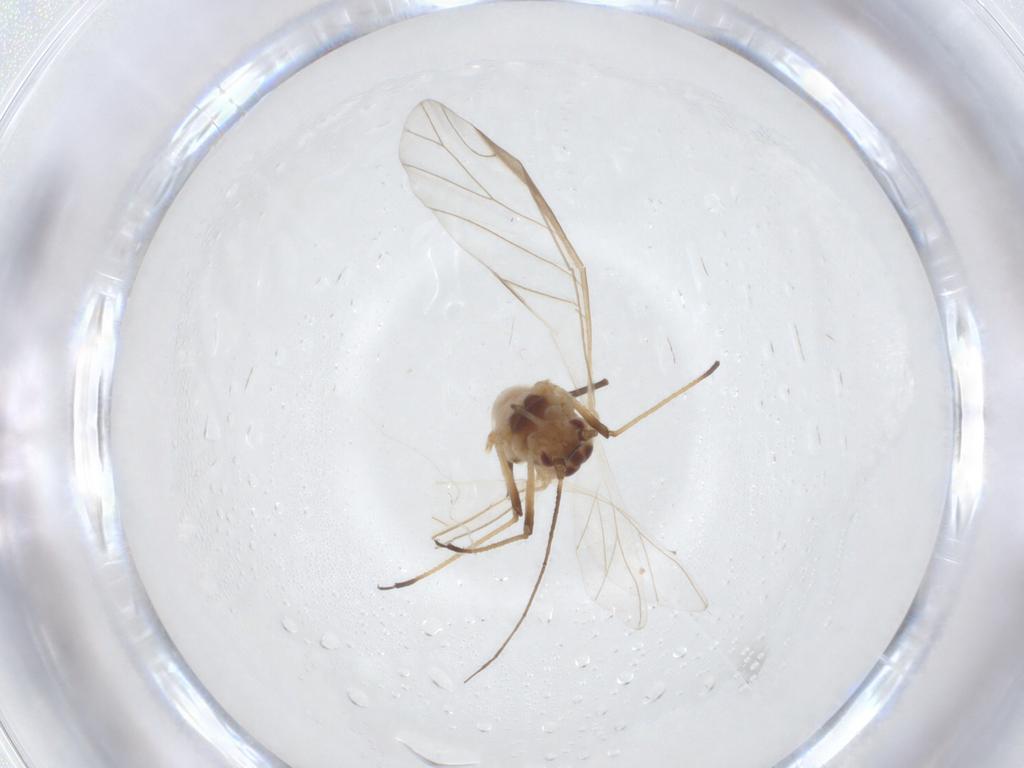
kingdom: Animalia
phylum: Arthropoda
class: Insecta
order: Hemiptera
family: Aphididae
